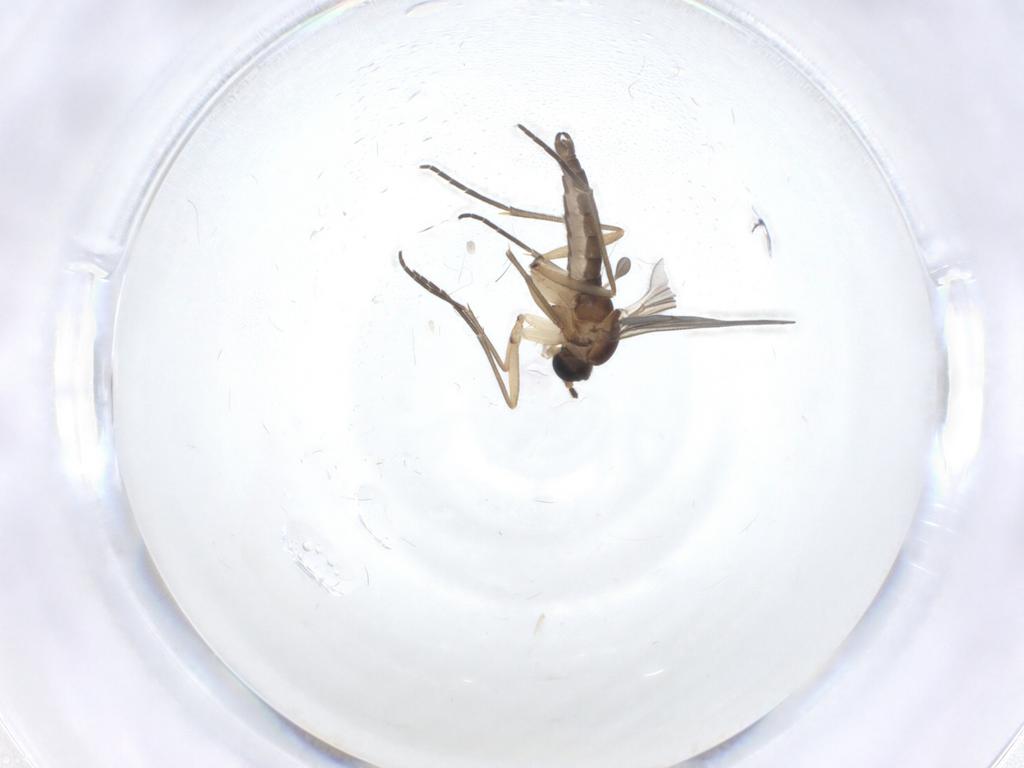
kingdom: Animalia
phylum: Arthropoda
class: Insecta
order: Diptera
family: Sciaridae
